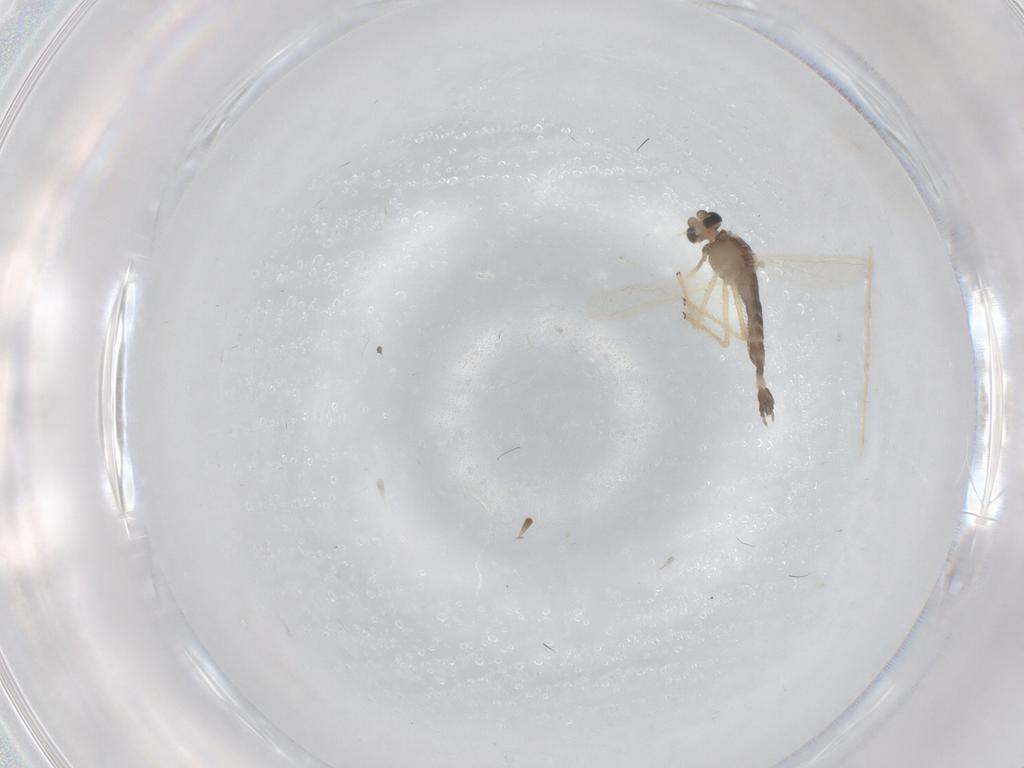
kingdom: Animalia
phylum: Arthropoda
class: Insecta
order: Diptera
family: Chironomidae
